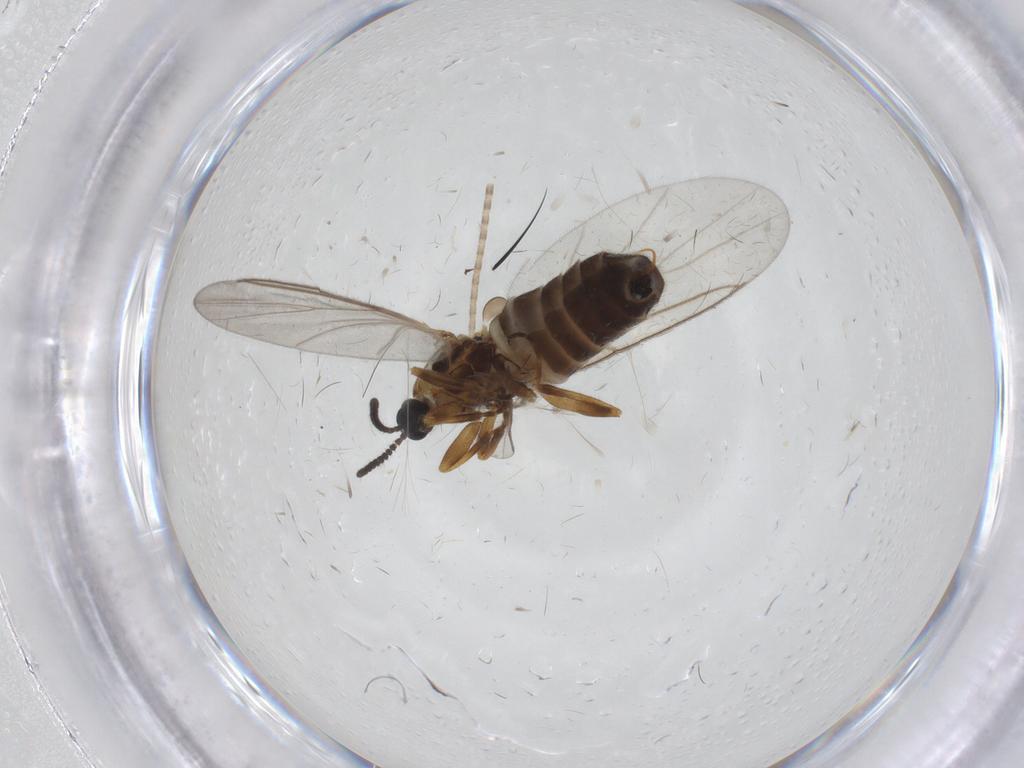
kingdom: Animalia
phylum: Arthropoda
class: Insecta
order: Diptera
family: Scatopsidae
